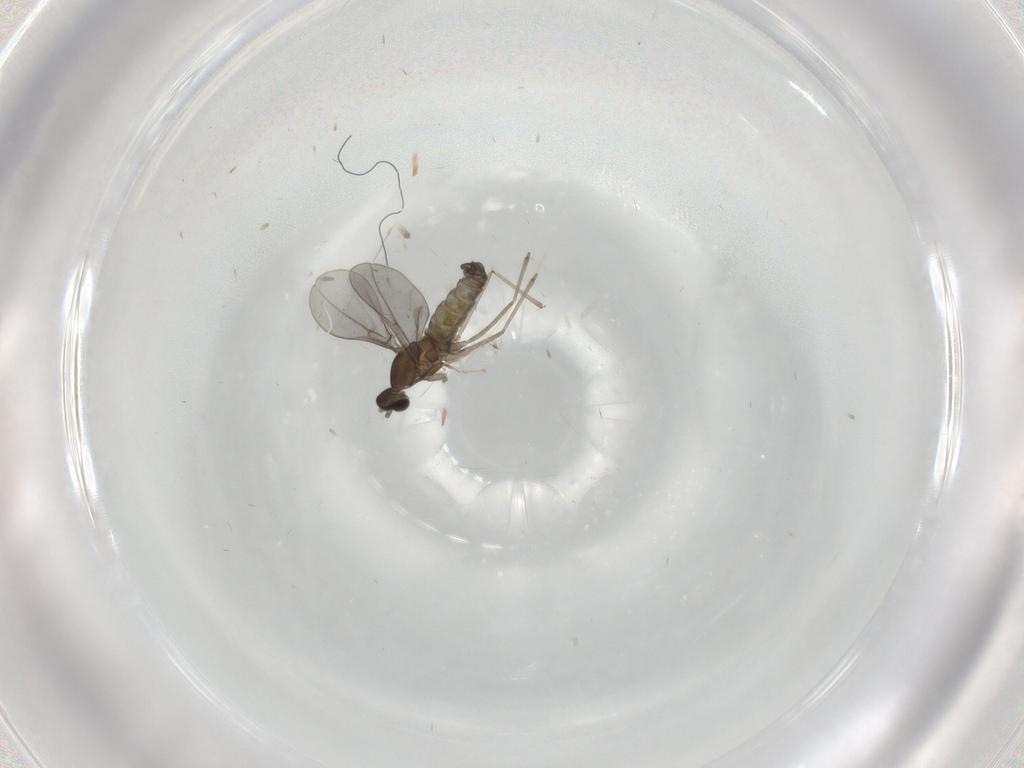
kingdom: Animalia
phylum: Arthropoda
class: Insecta
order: Diptera
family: Cecidomyiidae
